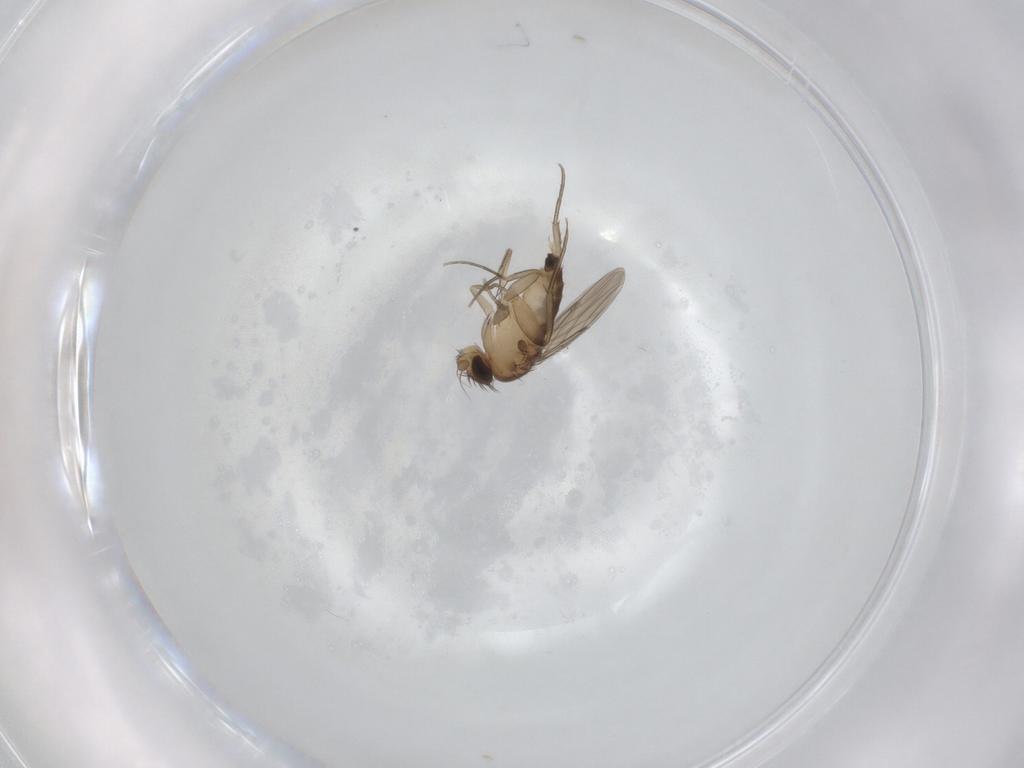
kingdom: Animalia
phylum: Arthropoda
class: Insecta
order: Diptera
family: Phoridae
